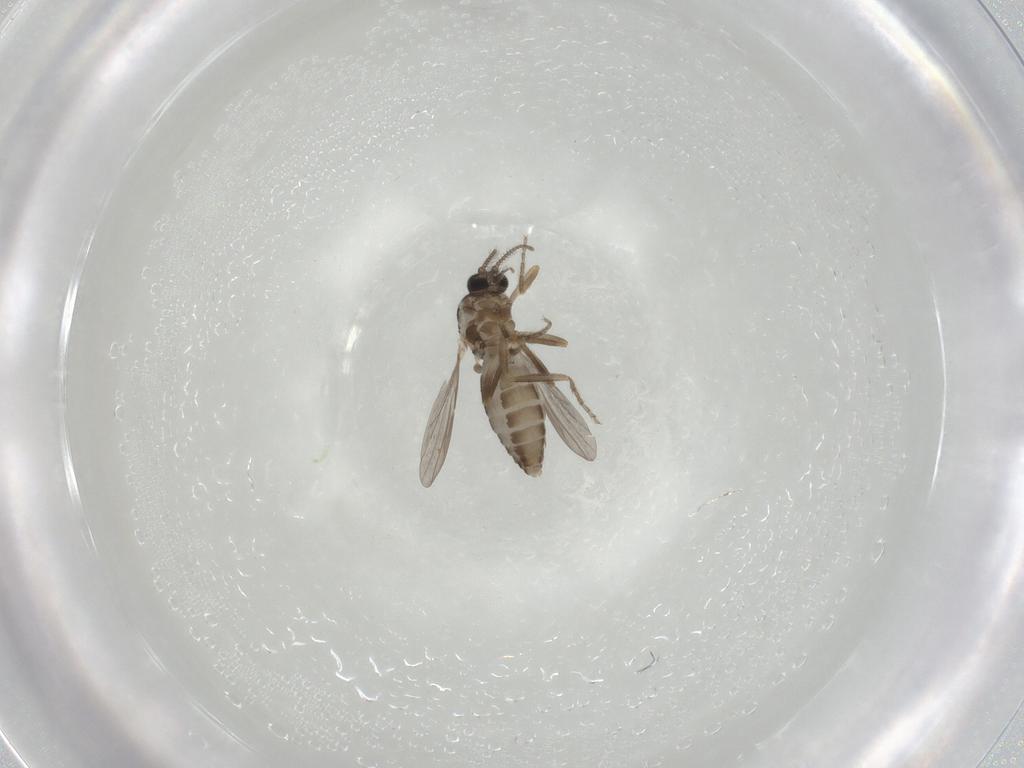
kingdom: Animalia
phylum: Arthropoda
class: Insecta
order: Diptera
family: Ceratopogonidae
